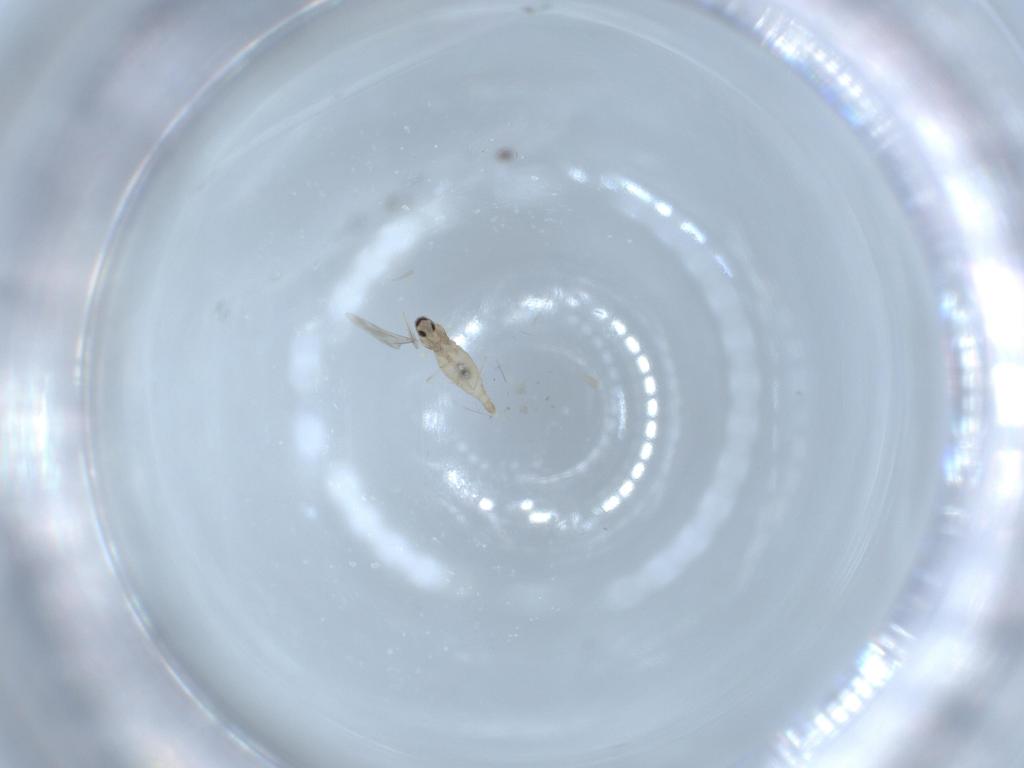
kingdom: Animalia
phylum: Arthropoda
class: Insecta
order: Diptera
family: Cecidomyiidae
